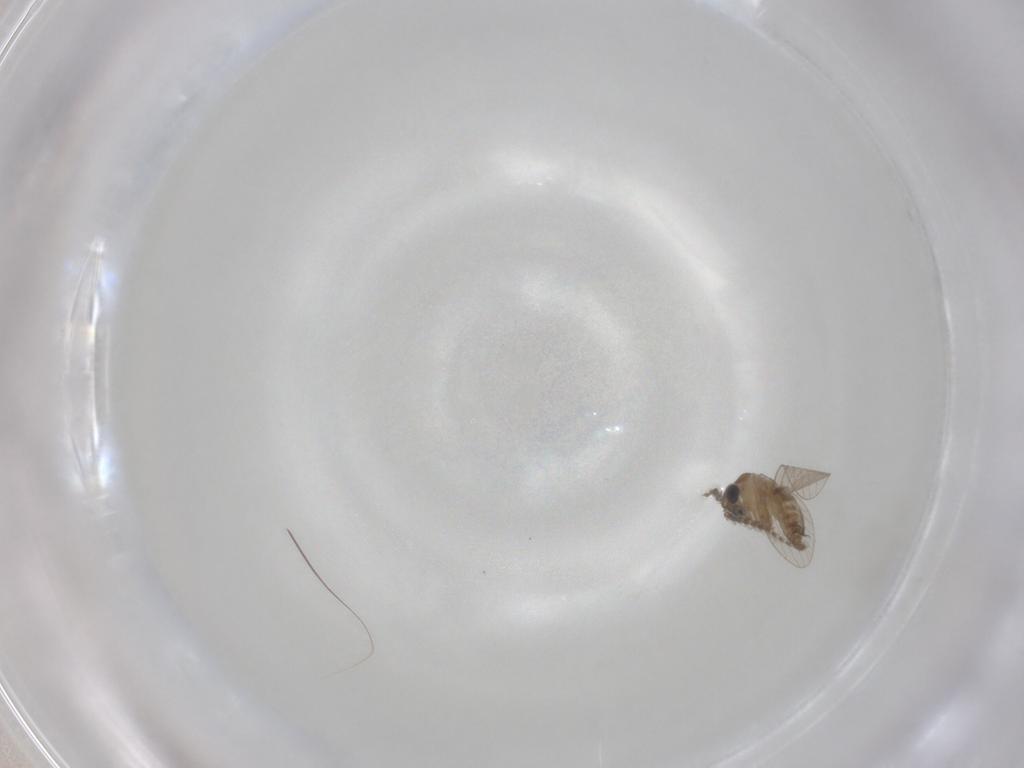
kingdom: Animalia
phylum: Arthropoda
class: Insecta
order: Diptera
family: Psychodidae
